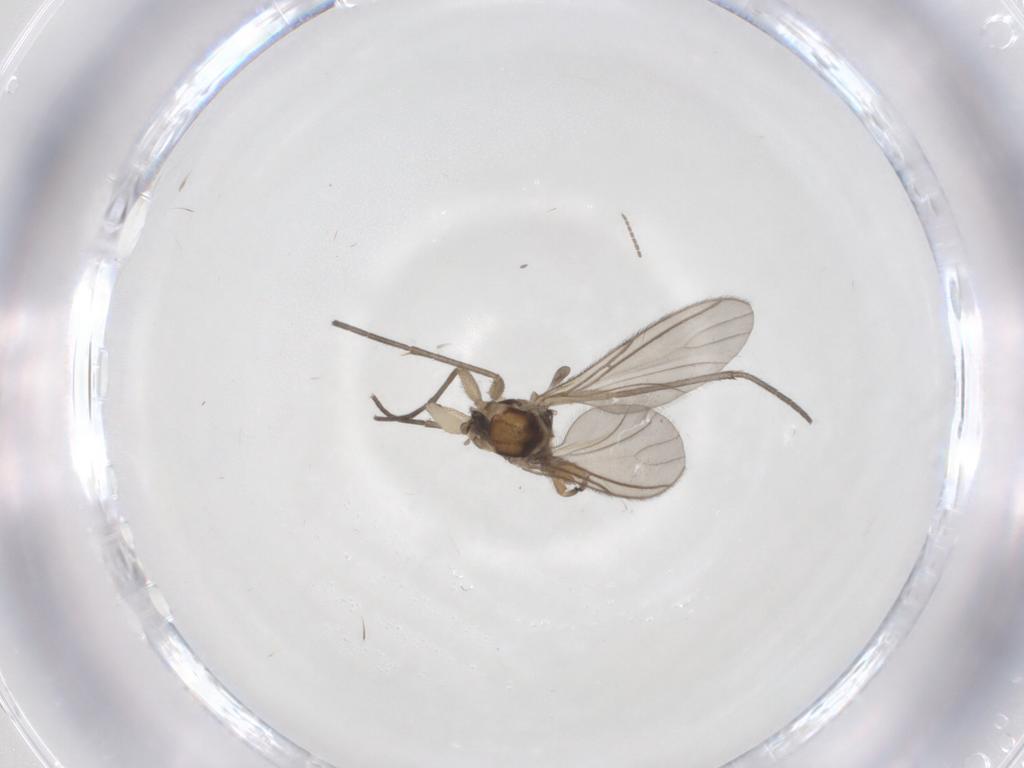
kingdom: Animalia
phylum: Arthropoda
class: Insecta
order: Diptera
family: Sciaridae
